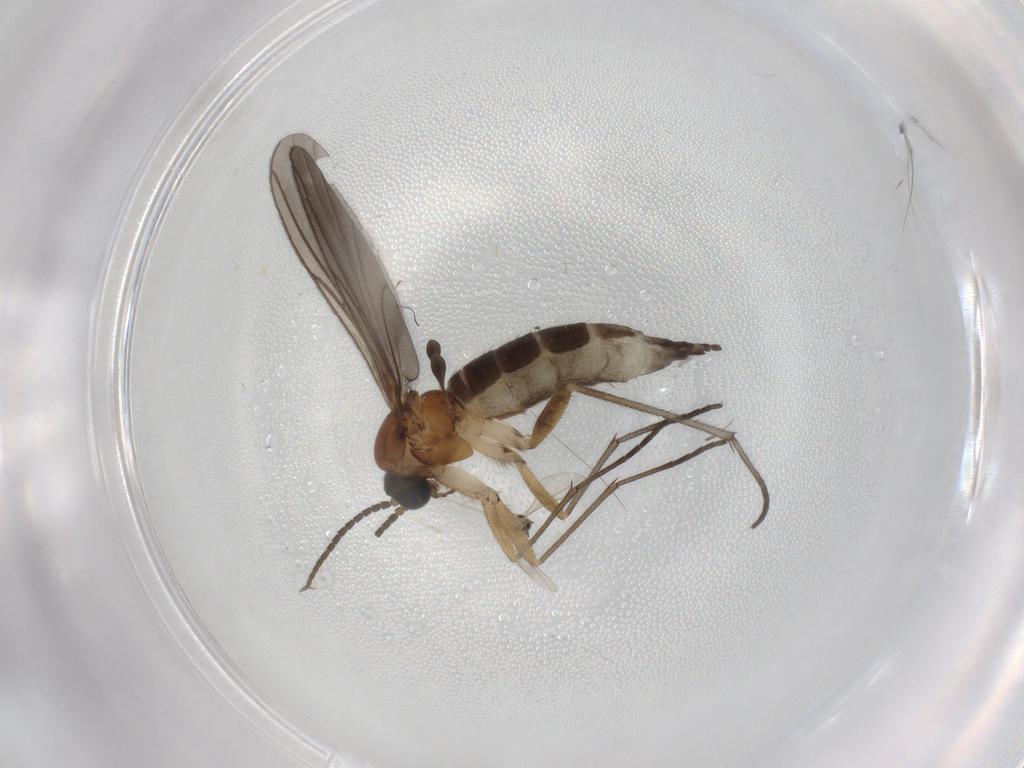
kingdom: Animalia
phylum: Arthropoda
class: Insecta
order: Diptera
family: Sciaridae
